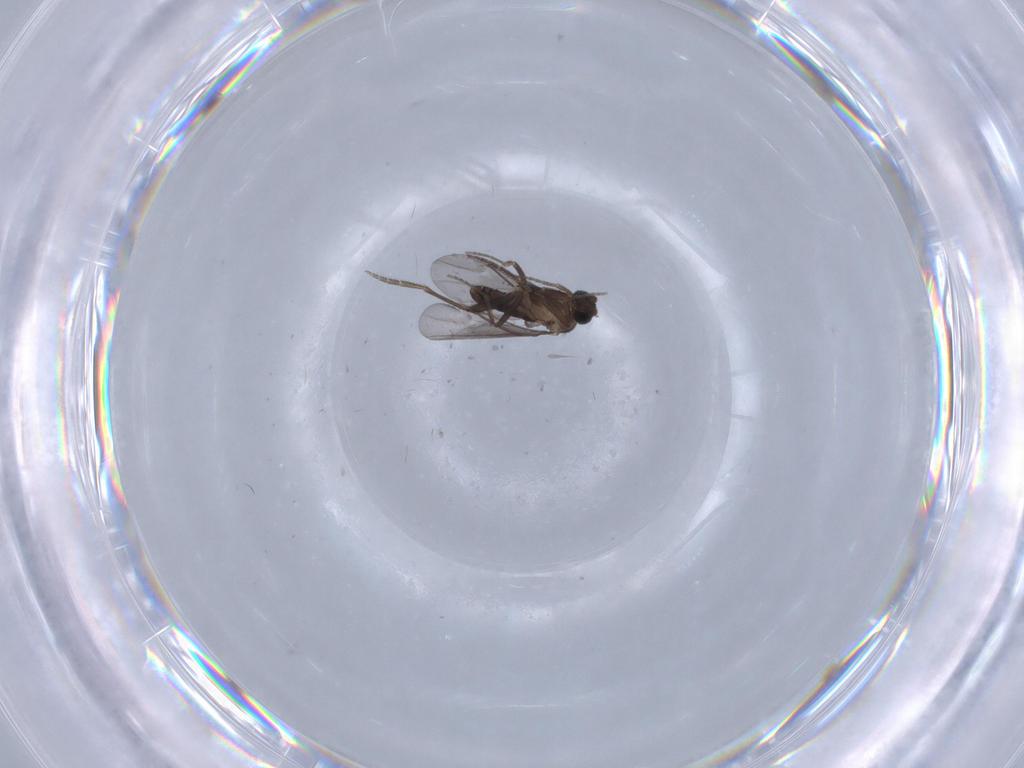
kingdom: Animalia
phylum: Arthropoda
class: Insecta
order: Diptera
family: Phoridae
